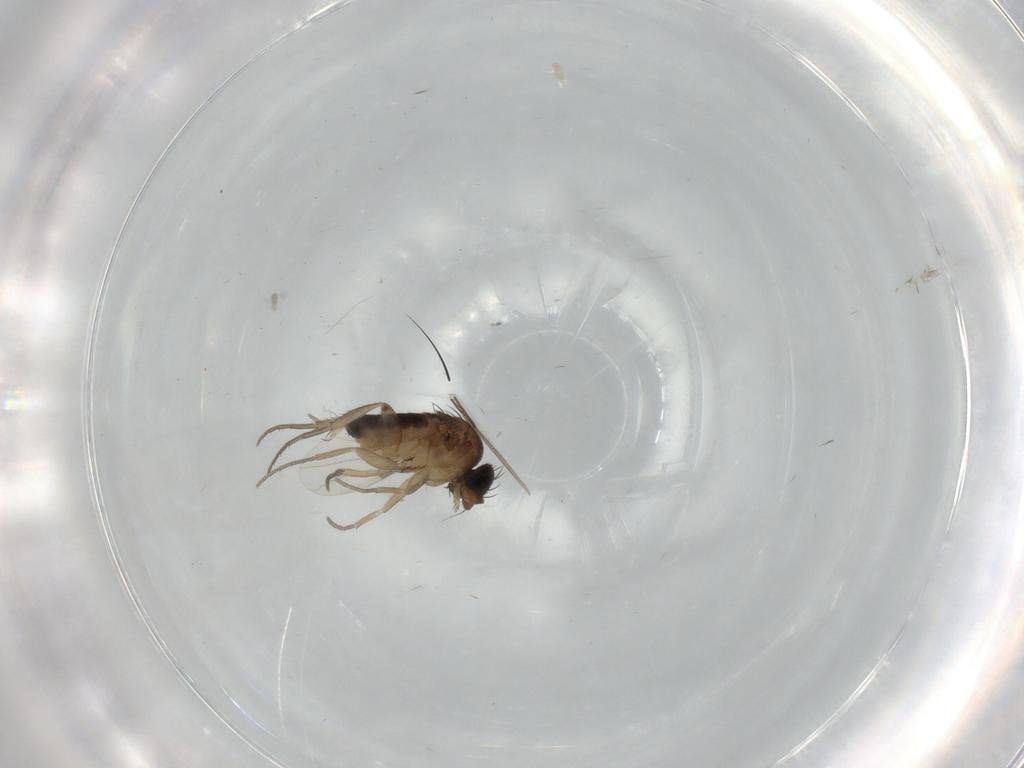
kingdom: Animalia
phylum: Arthropoda
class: Insecta
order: Diptera
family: Phoridae
